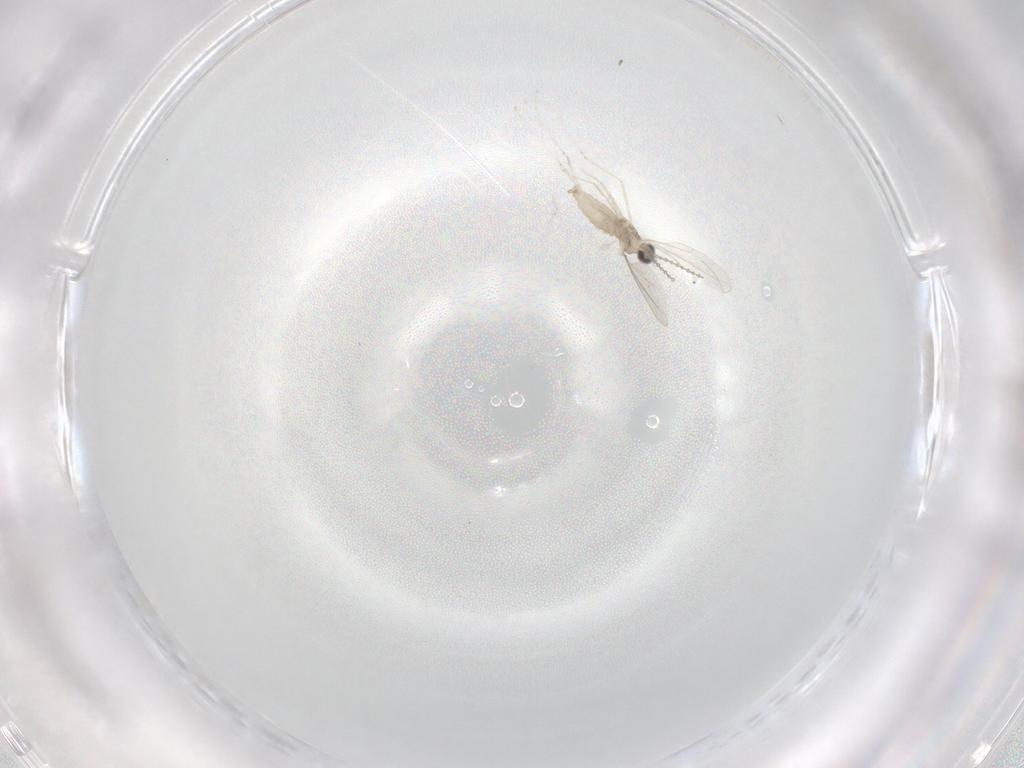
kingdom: Animalia
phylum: Arthropoda
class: Insecta
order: Diptera
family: Cecidomyiidae
